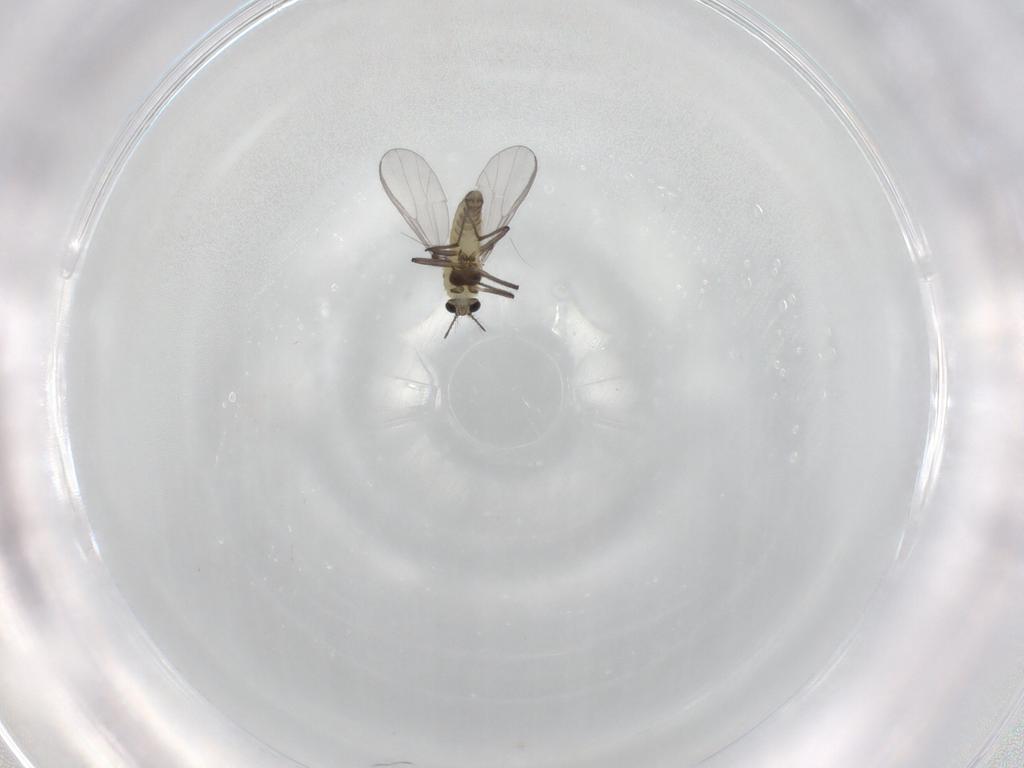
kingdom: Animalia
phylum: Arthropoda
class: Insecta
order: Diptera
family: Chironomidae
